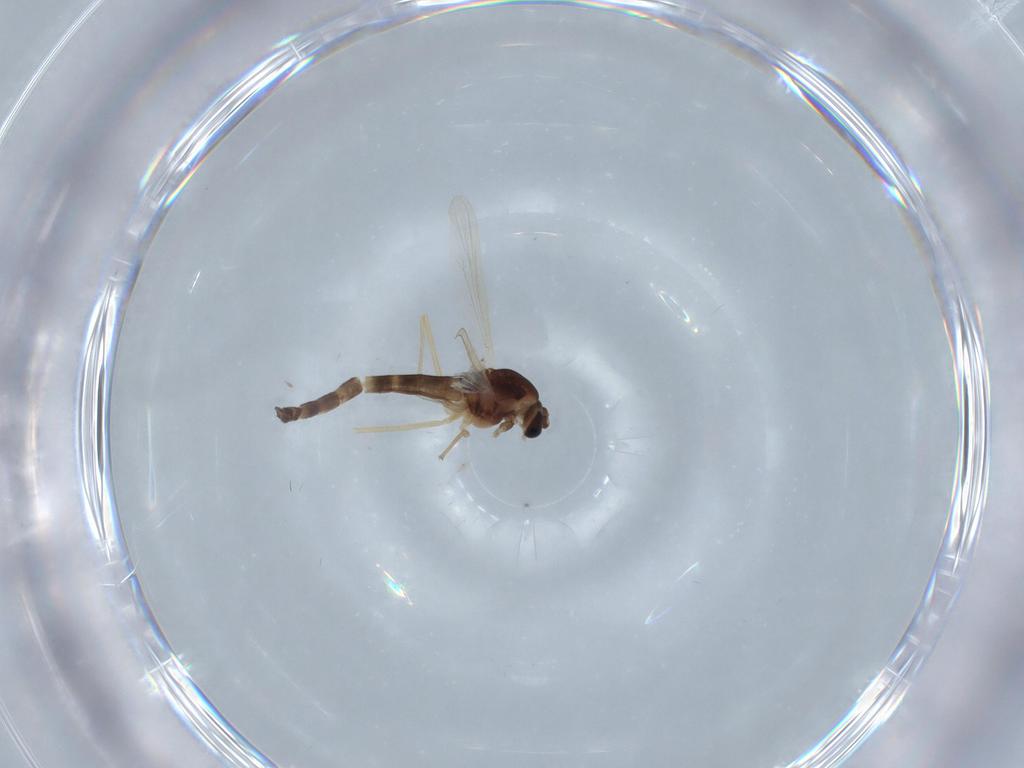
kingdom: Animalia
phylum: Arthropoda
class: Insecta
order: Diptera
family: Chironomidae
